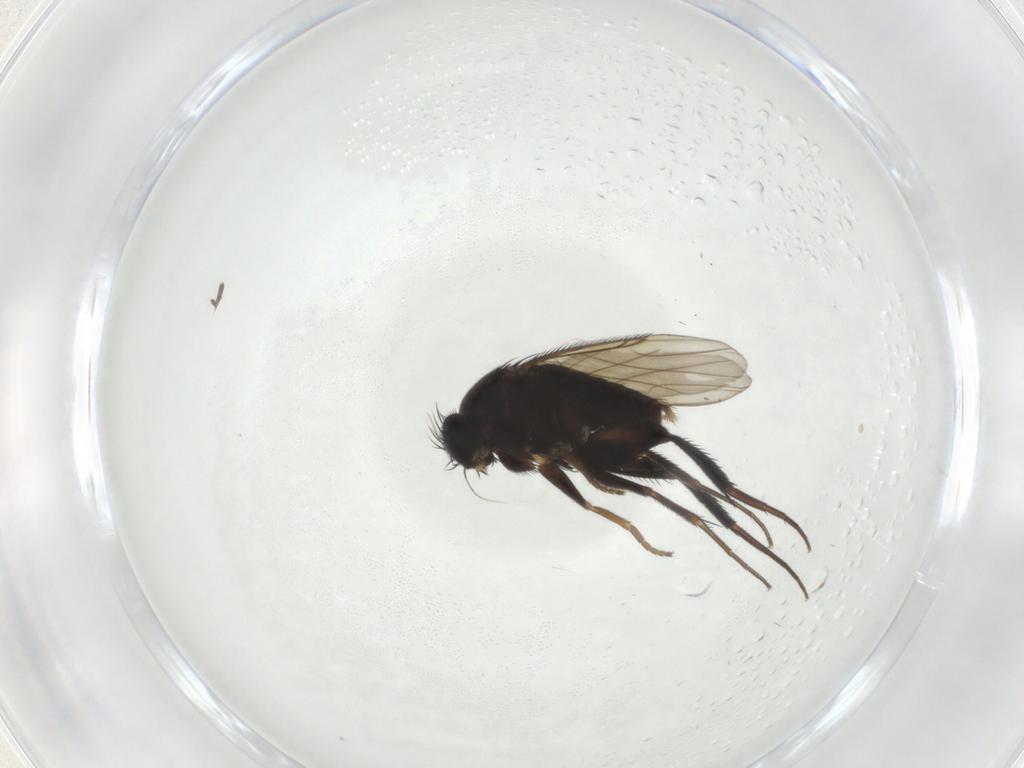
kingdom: Animalia
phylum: Arthropoda
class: Insecta
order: Diptera
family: Phoridae
